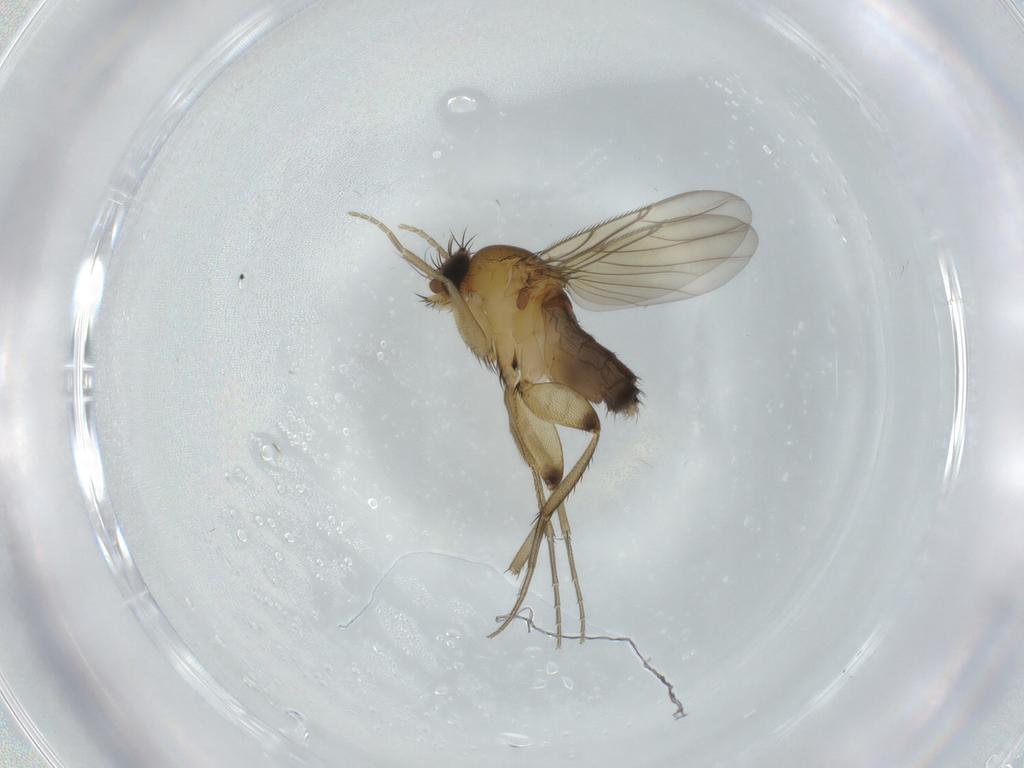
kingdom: Animalia
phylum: Arthropoda
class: Insecta
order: Diptera
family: Phoridae
